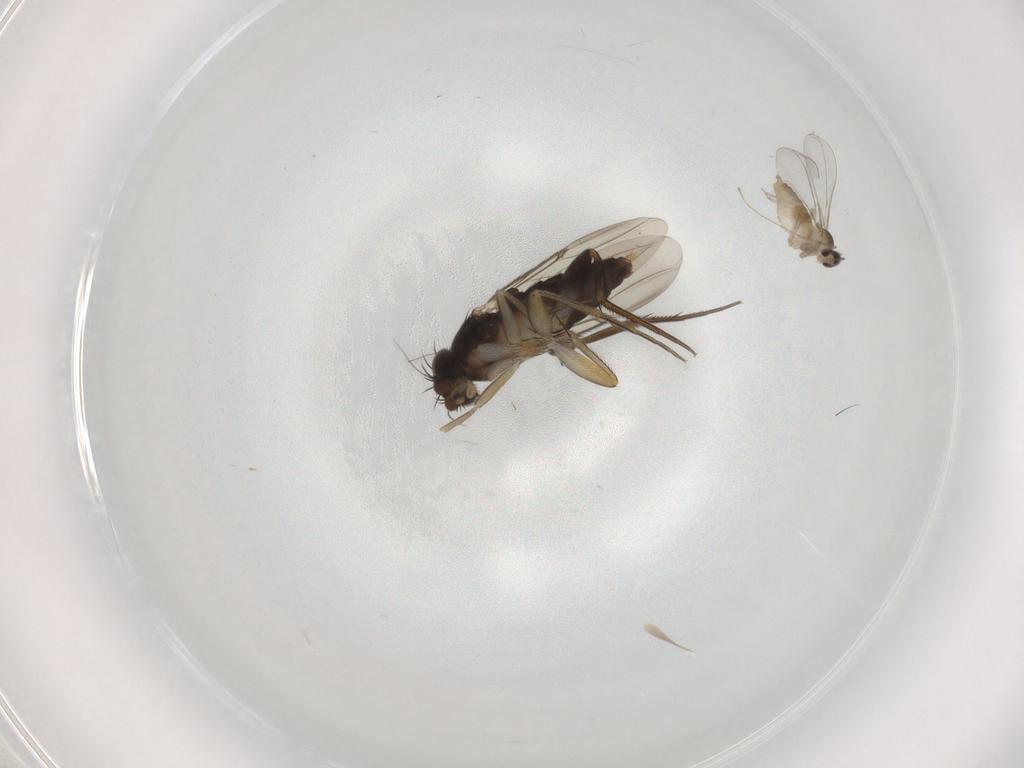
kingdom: Animalia
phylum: Arthropoda
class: Insecta
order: Diptera
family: Phoridae
